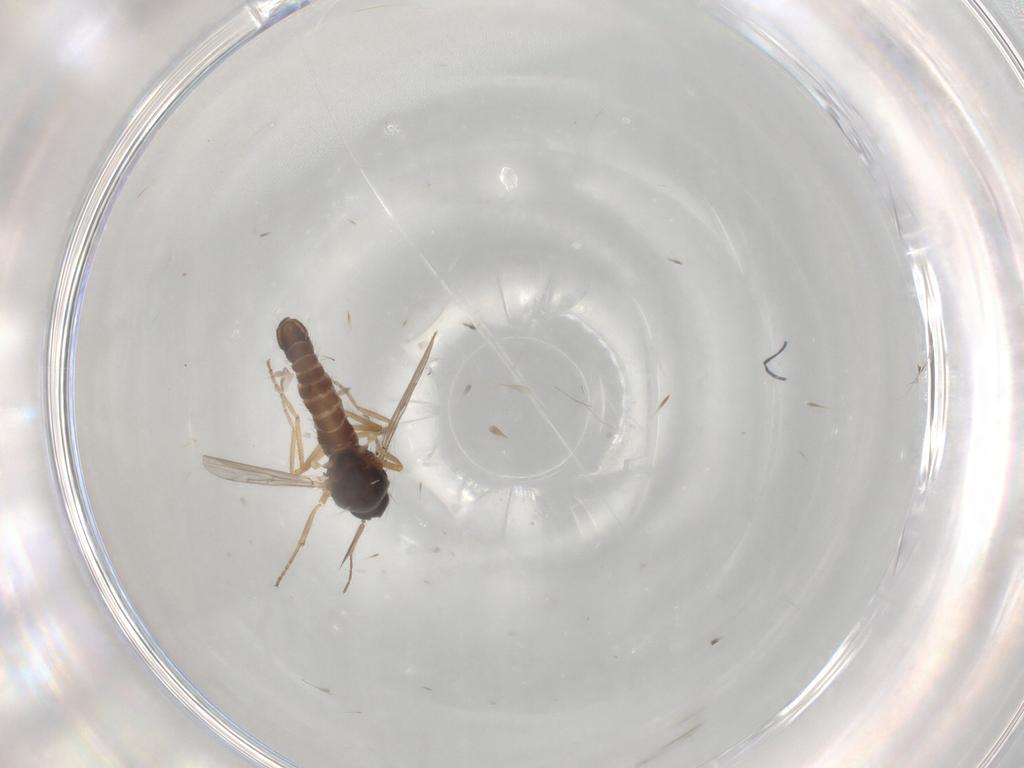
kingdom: Animalia
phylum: Arthropoda
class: Insecta
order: Diptera
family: Ceratopogonidae
